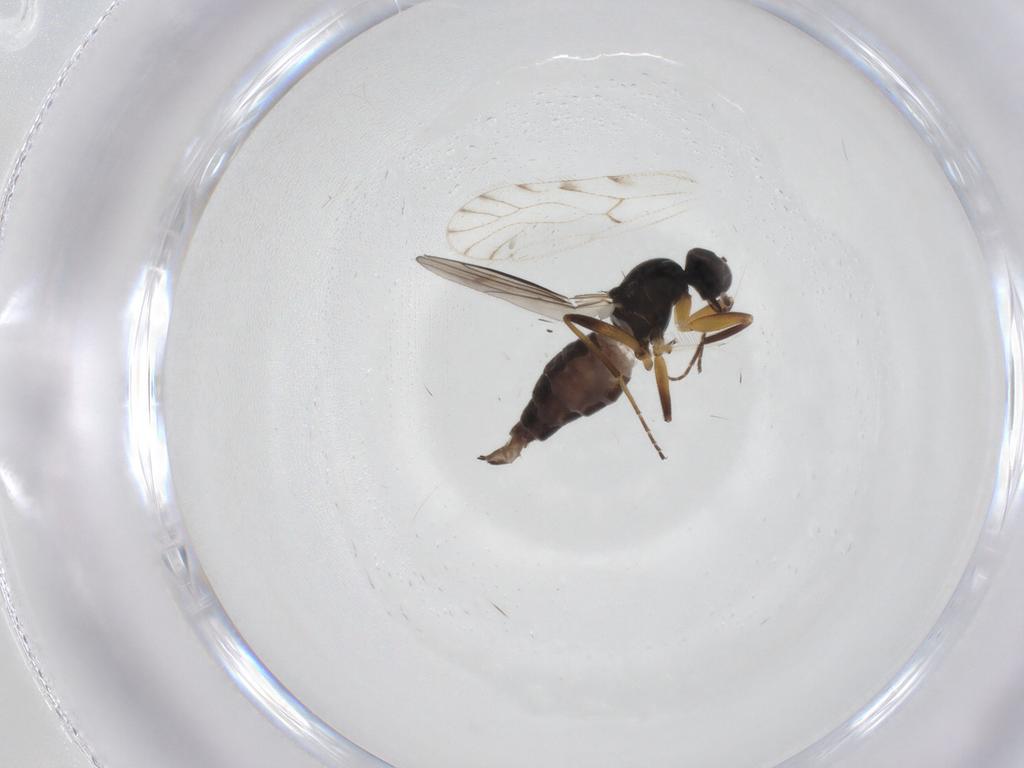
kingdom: Animalia
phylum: Arthropoda
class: Insecta
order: Diptera
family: Hybotidae
